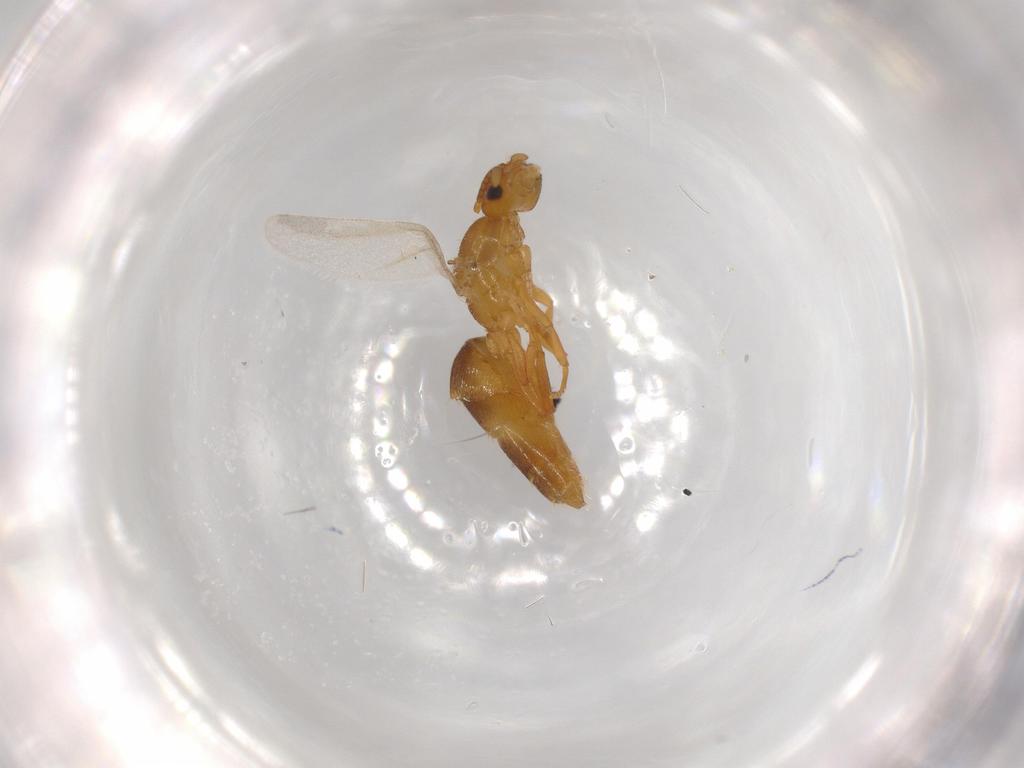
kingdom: Animalia
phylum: Arthropoda
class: Insecta
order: Hymenoptera
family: Formicidae
